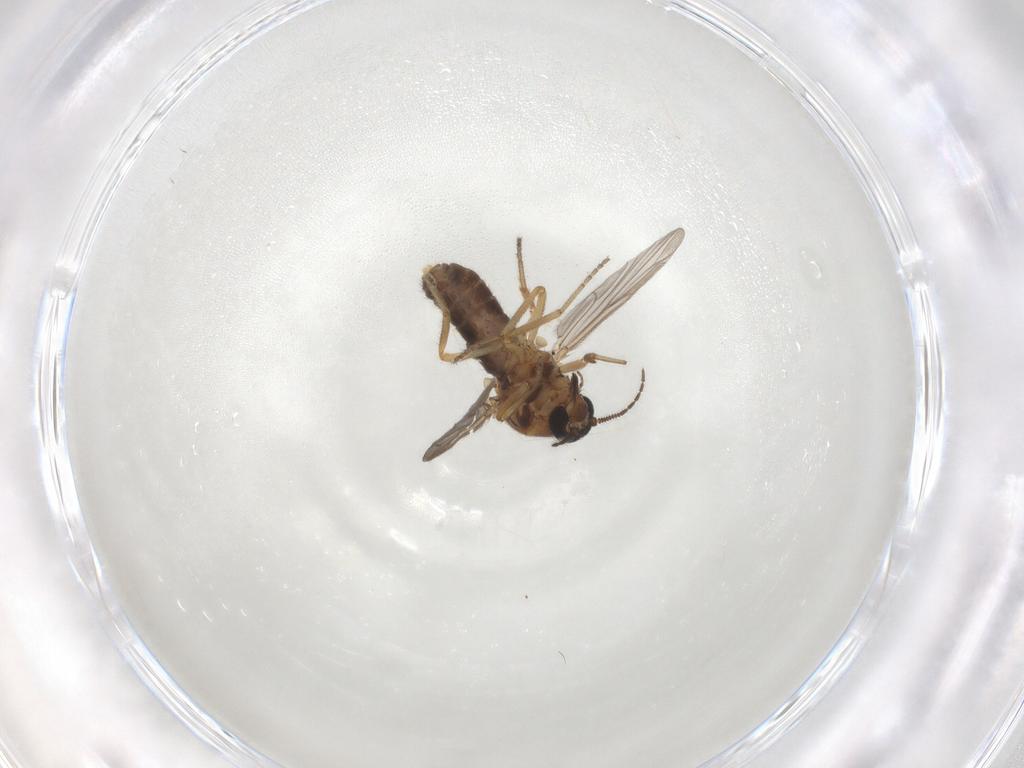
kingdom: Animalia
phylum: Arthropoda
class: Insecta
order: Diptera
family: Ceratopogonidae
